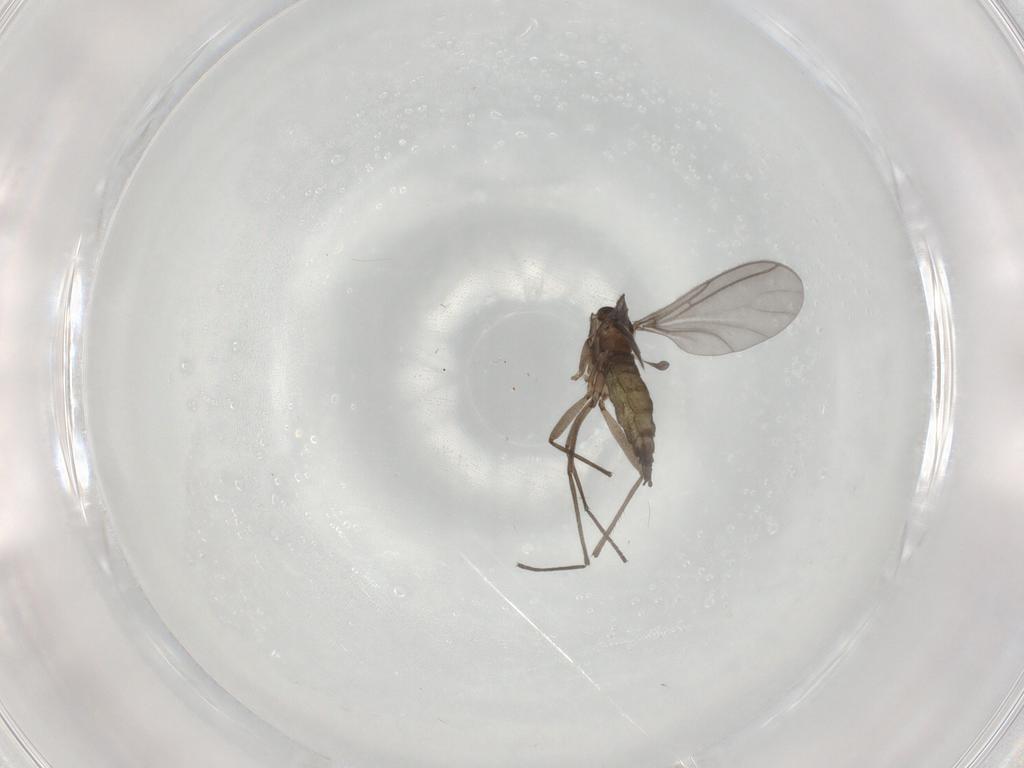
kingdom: Animalia
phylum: Arthropoda
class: Insecta
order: Diptera
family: Sciaridae
